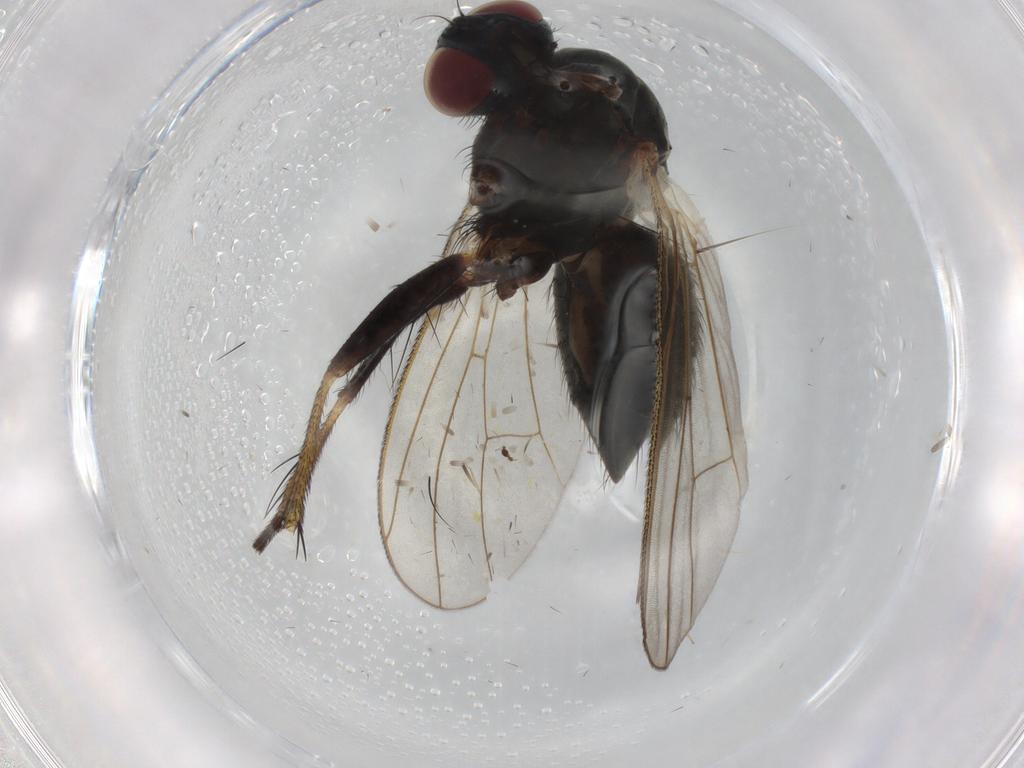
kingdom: Animalia
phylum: Arthropoda
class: Insecta
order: Diptera
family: Muscidae
